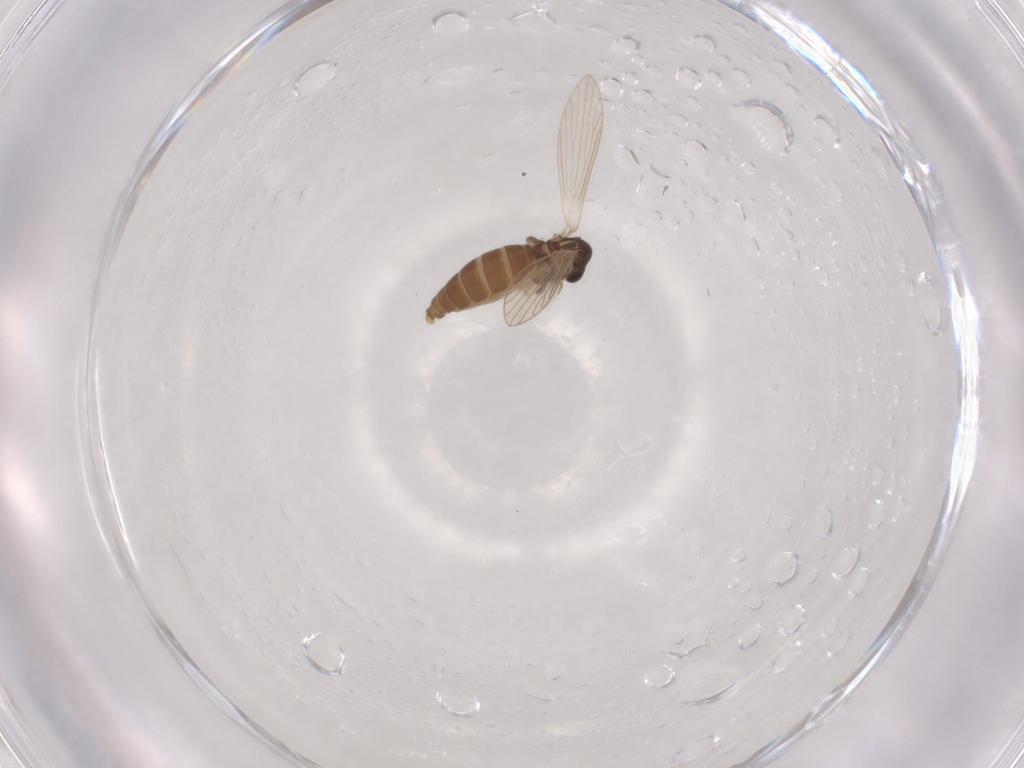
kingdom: Animalia
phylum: Arthropoda
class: Insecta
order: Diptera
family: Psychodidae
